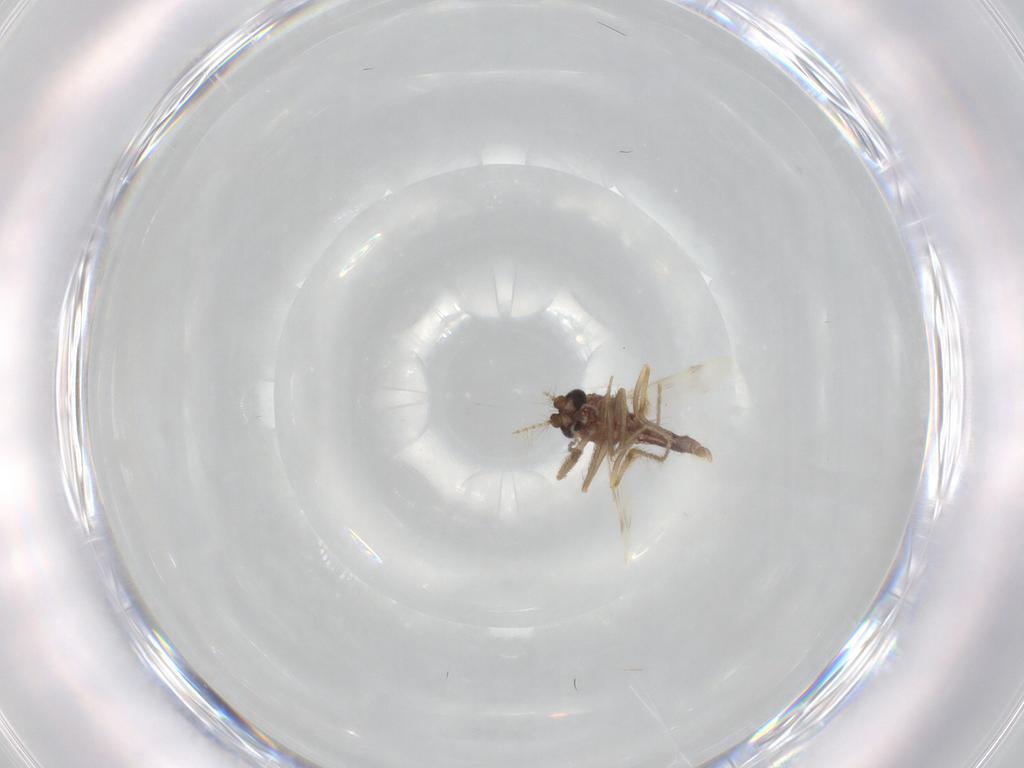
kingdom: Animalia
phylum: Arthropoda
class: Insecta
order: Diptera
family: Corethrellidae
